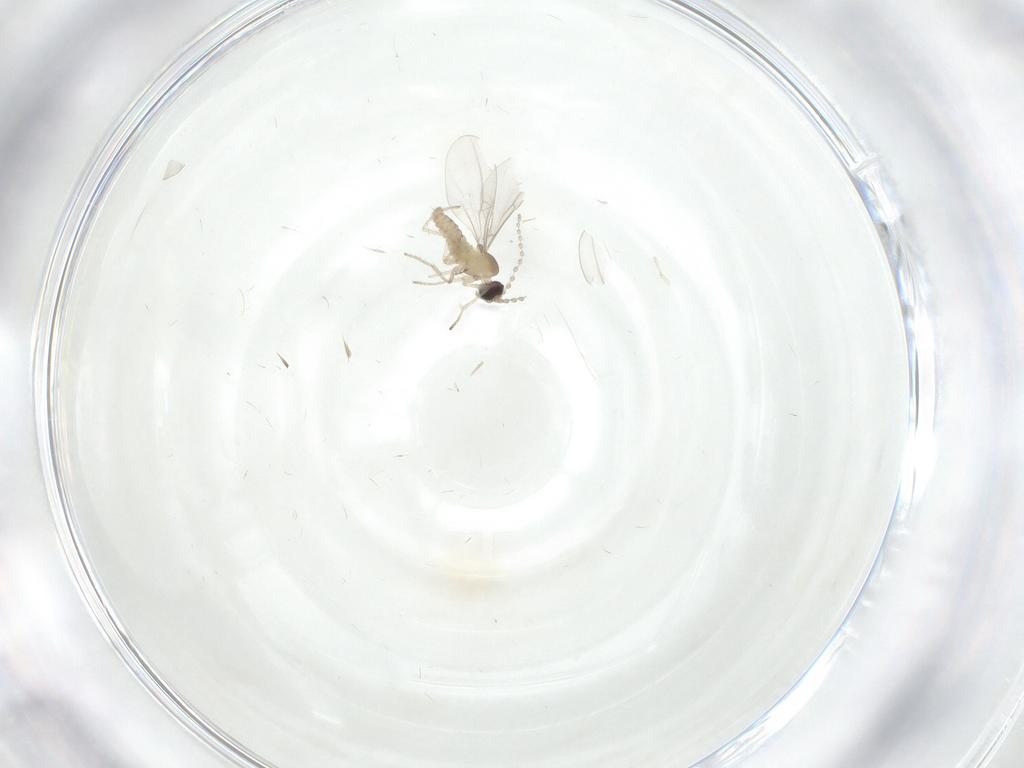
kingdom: Animalia
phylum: Arthropoda
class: Insecta
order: Diptera
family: Cecidomyiidae
